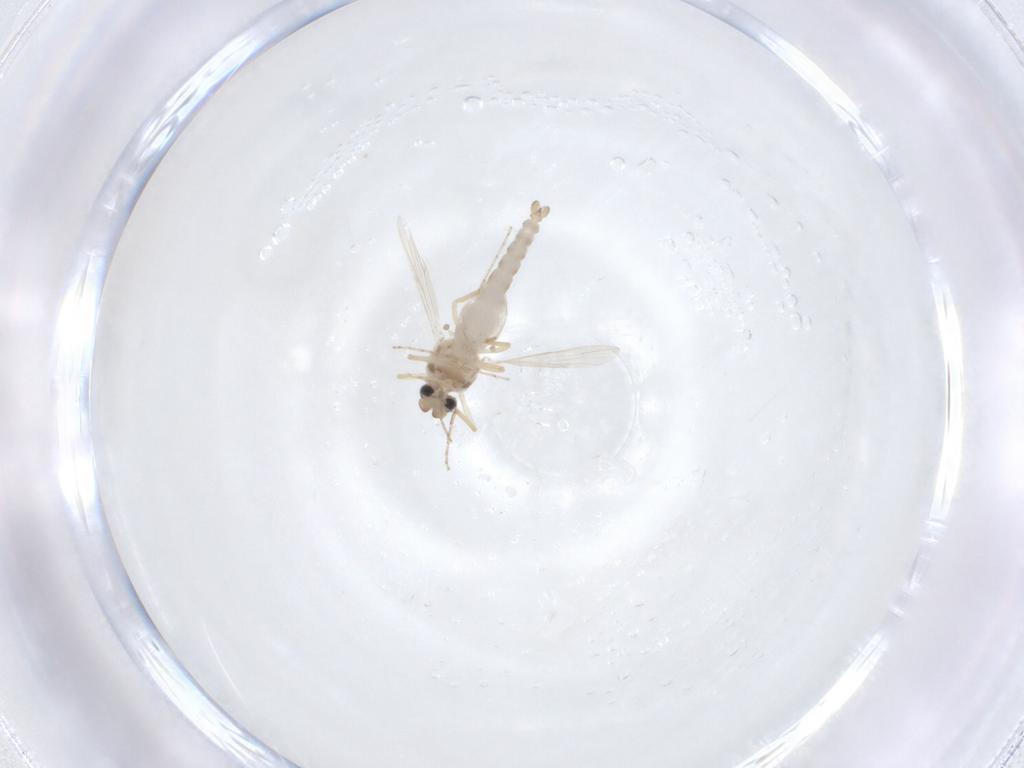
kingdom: Animalia
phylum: Arthropoda
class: Insecta
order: Diptera
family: Ceratopogonidae
